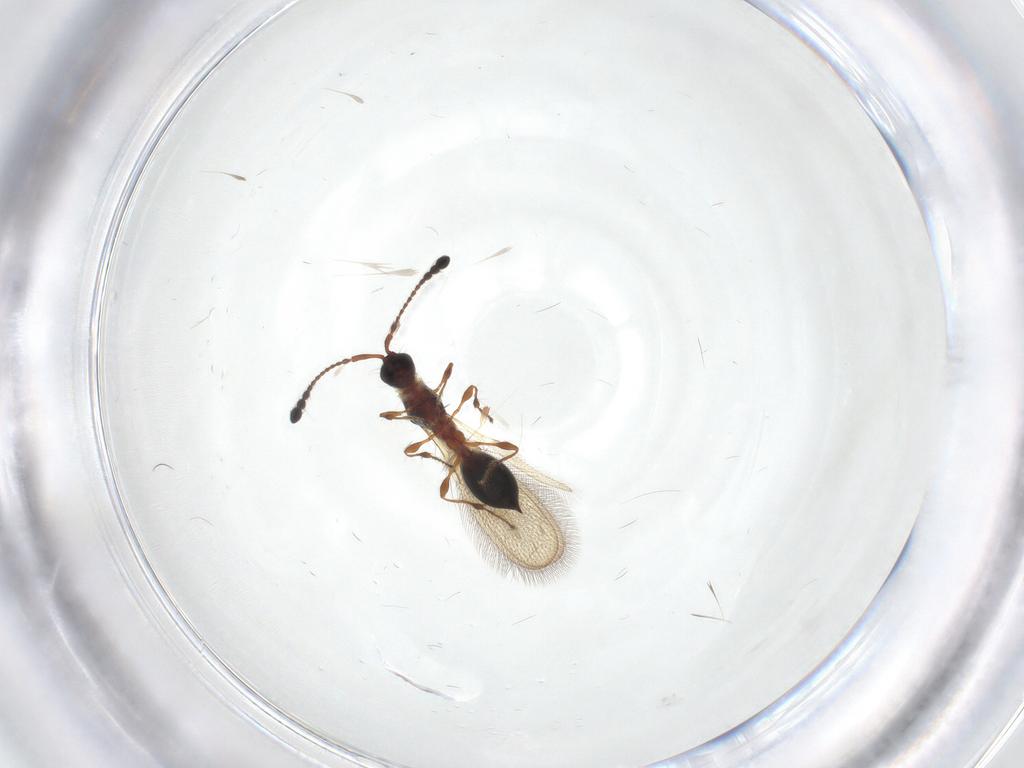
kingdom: Animalia
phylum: Arthropoda
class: Insecta
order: Hymenoptera
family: Diapriidae
